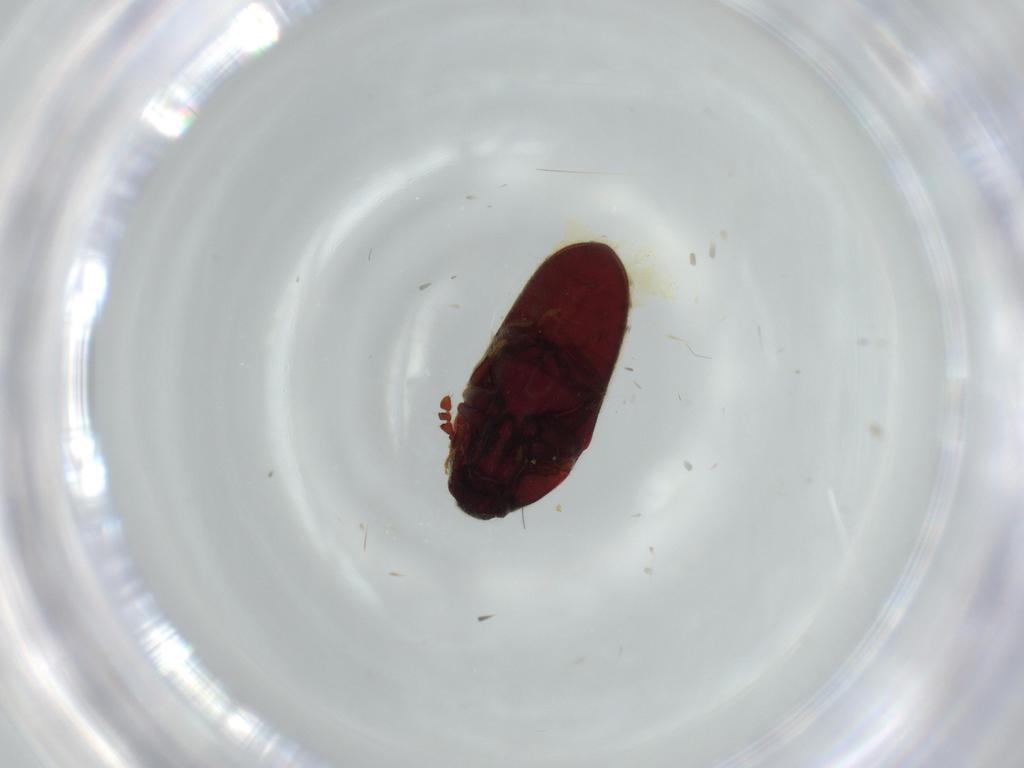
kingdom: Animalia
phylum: Arthropoda
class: Insecta
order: Coleoptera
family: Throscidae
